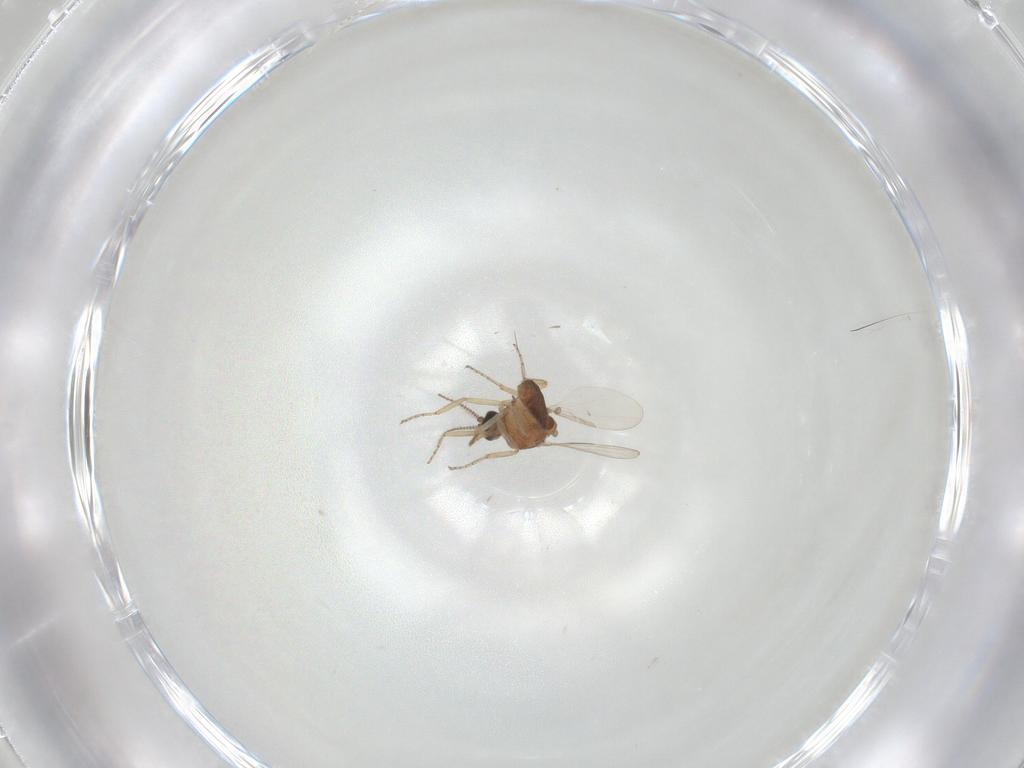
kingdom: Animalia
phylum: Arthropoda
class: Insecta
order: Diptera
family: Ceratopogonidae
